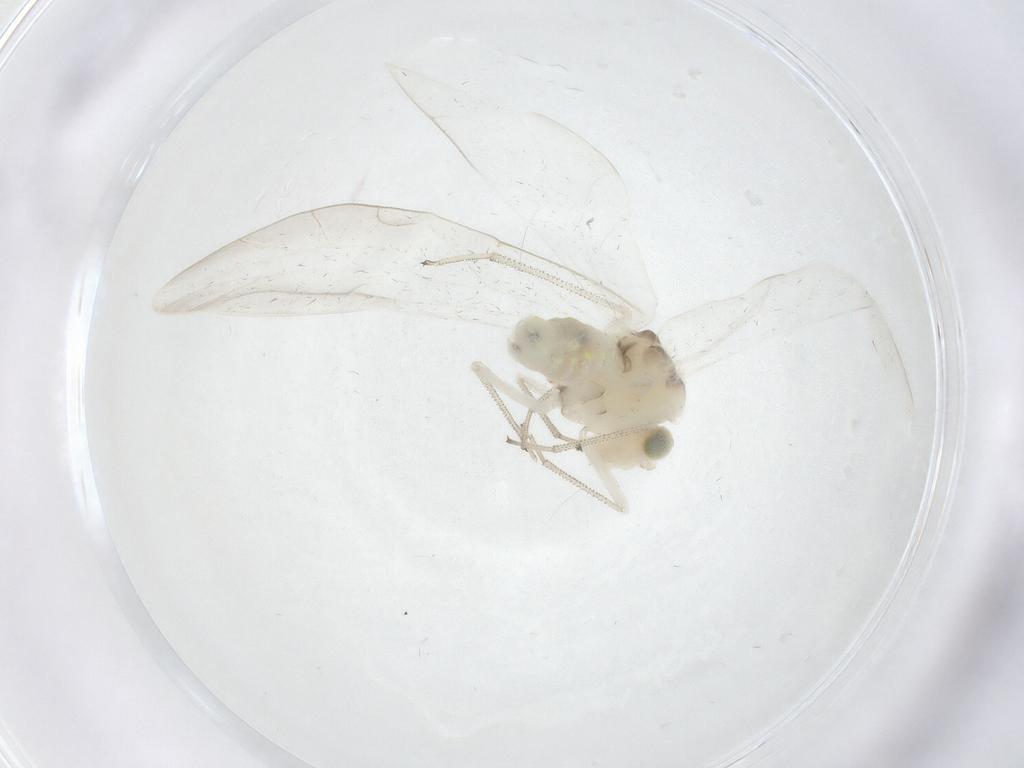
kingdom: Animalia
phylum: Arthropoda
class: Insecta
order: Psocodea
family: Caeciliusidae
